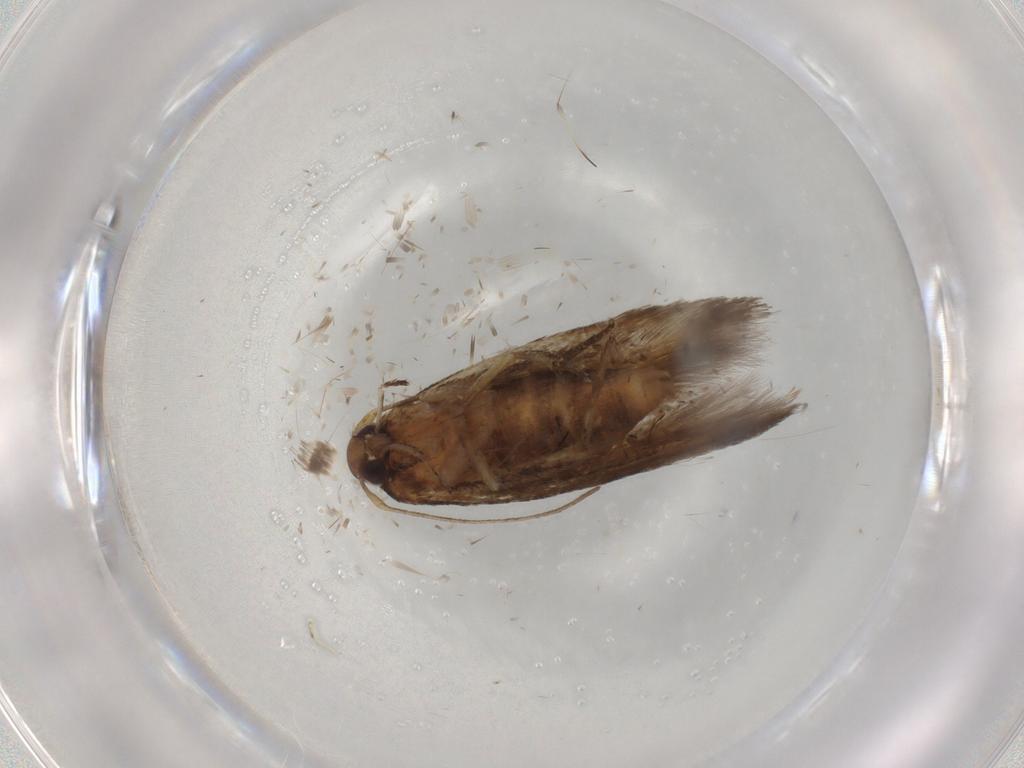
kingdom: Animalia
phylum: Arthropoda
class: Insecta
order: Lepidoptera
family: Cosmopterigidae
